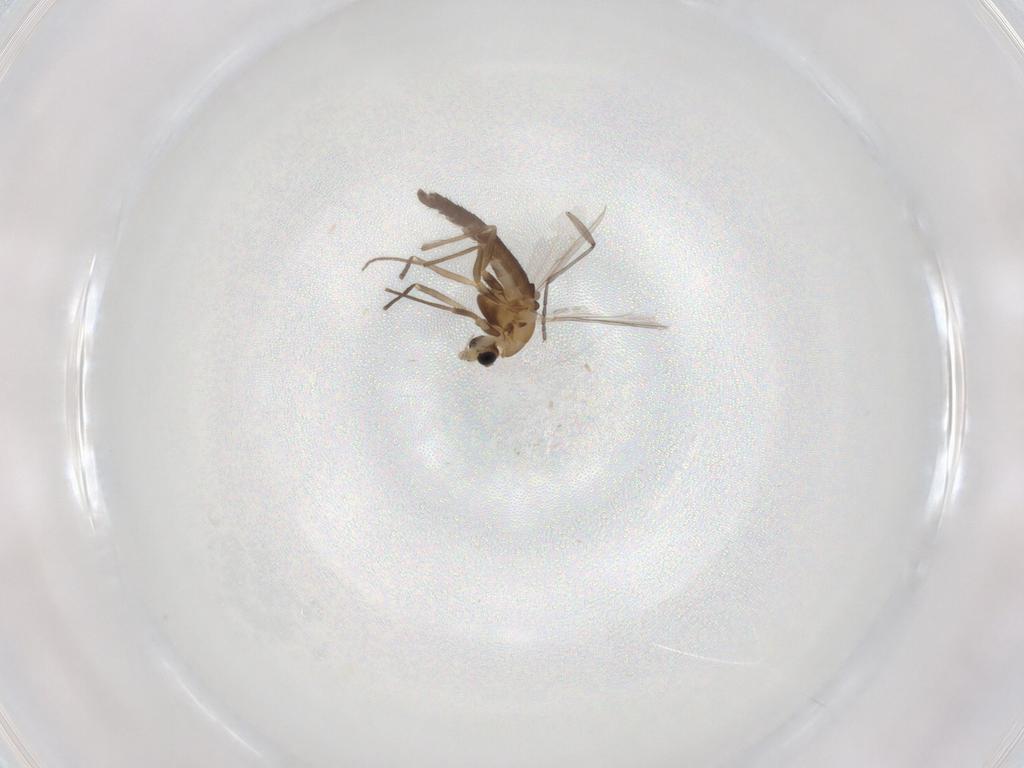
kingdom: Animalia
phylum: Arthropoda
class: Insecta
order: Diptera
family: Chironomidae
